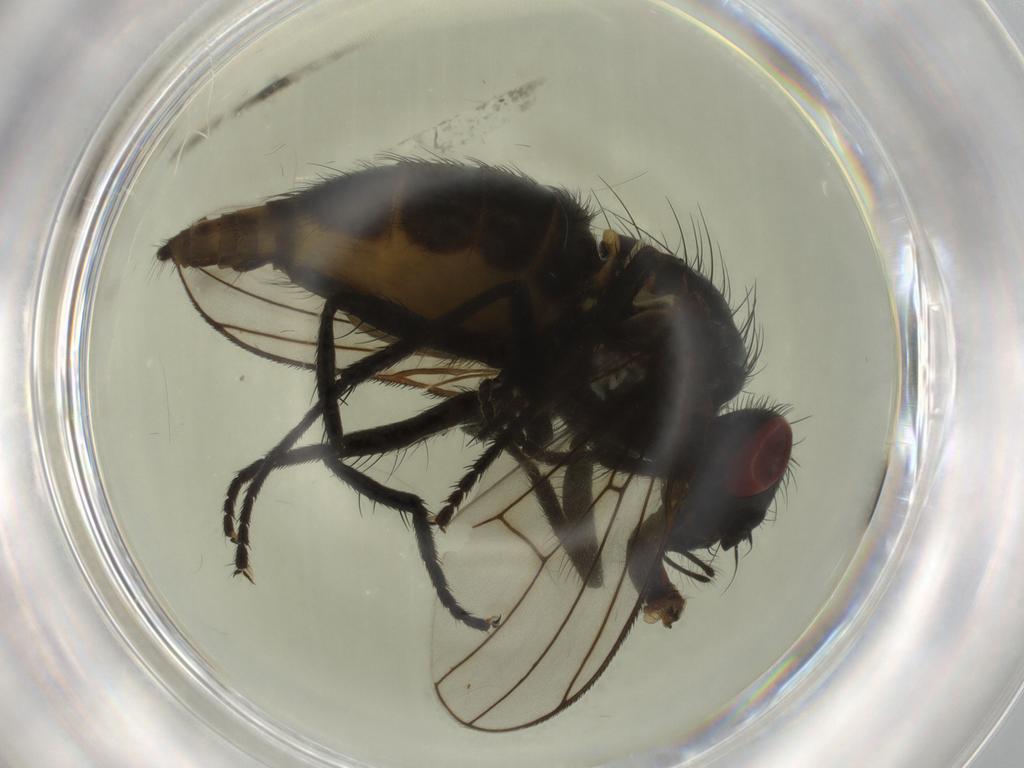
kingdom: Animalia
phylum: Arthropoda
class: Insecta
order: Diptera
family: Muscidae
